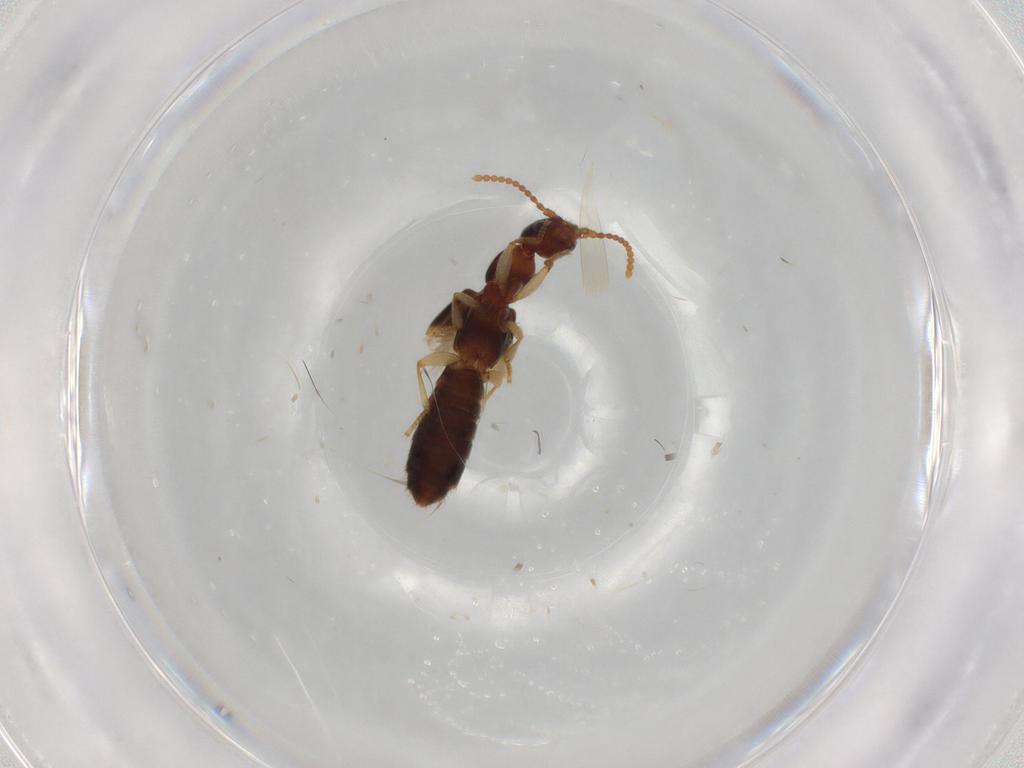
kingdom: Animalia
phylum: Arthropoda
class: Insecta
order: Coleoptera
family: Staphylinidae
